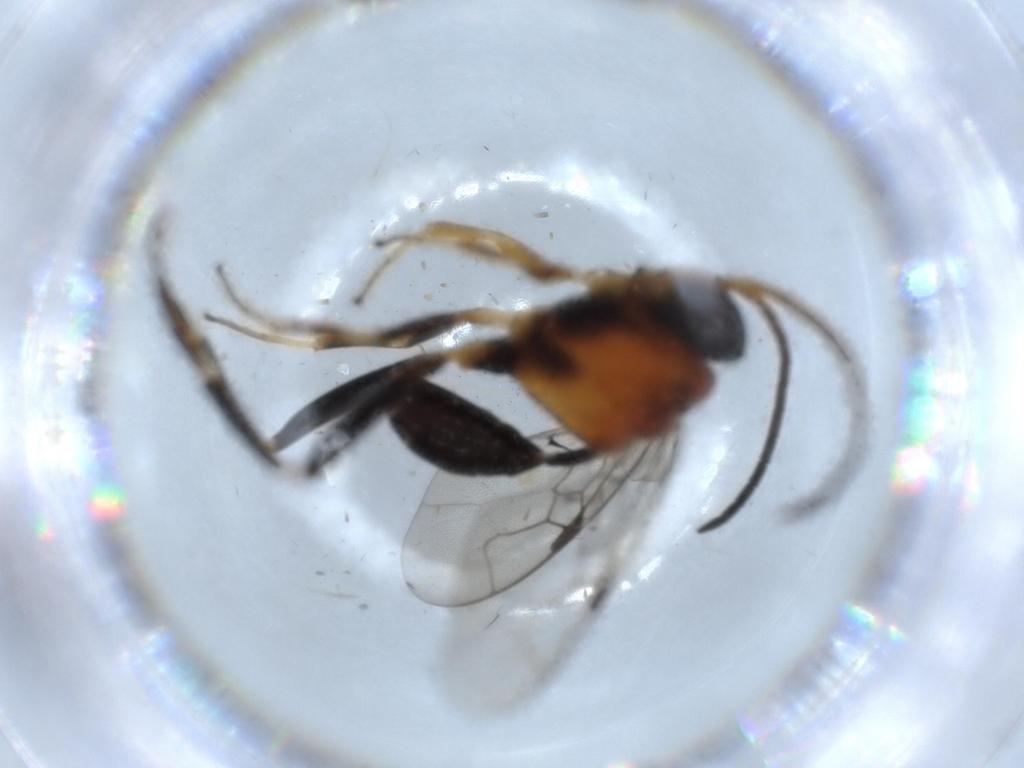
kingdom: Animalia
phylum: Arthropoda
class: Insecta
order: Hymenoptera
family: Evaniidae
